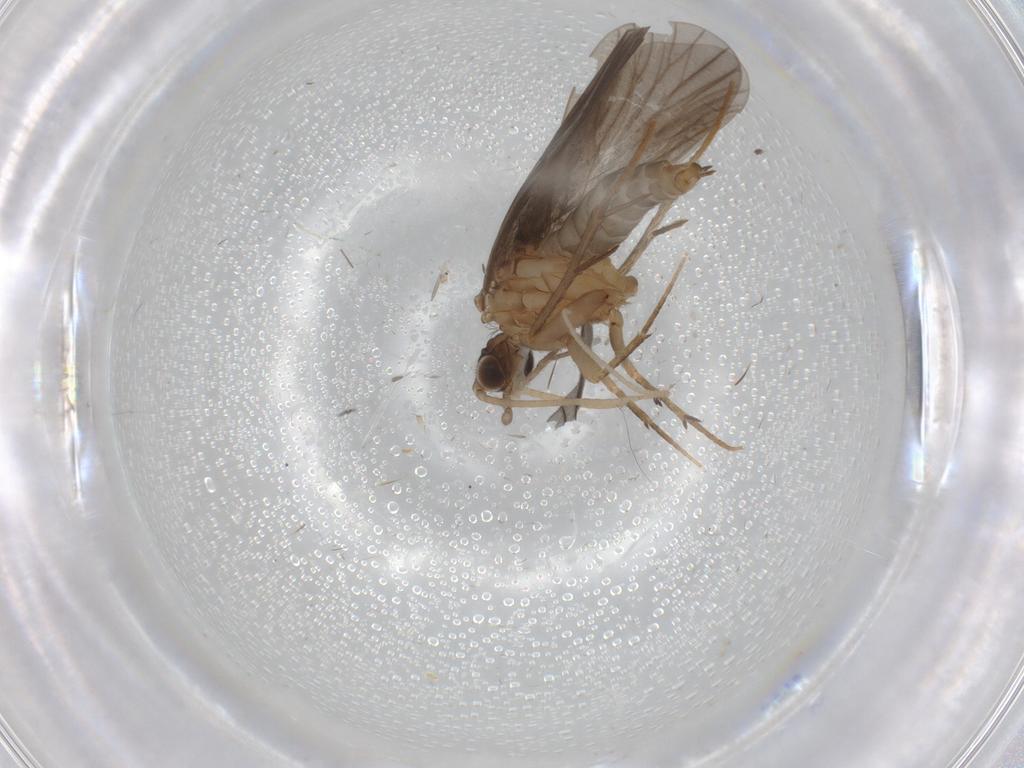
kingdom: Animalia
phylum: Arthropoda
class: Insecta
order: Trichoptera
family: Philopotamidae
